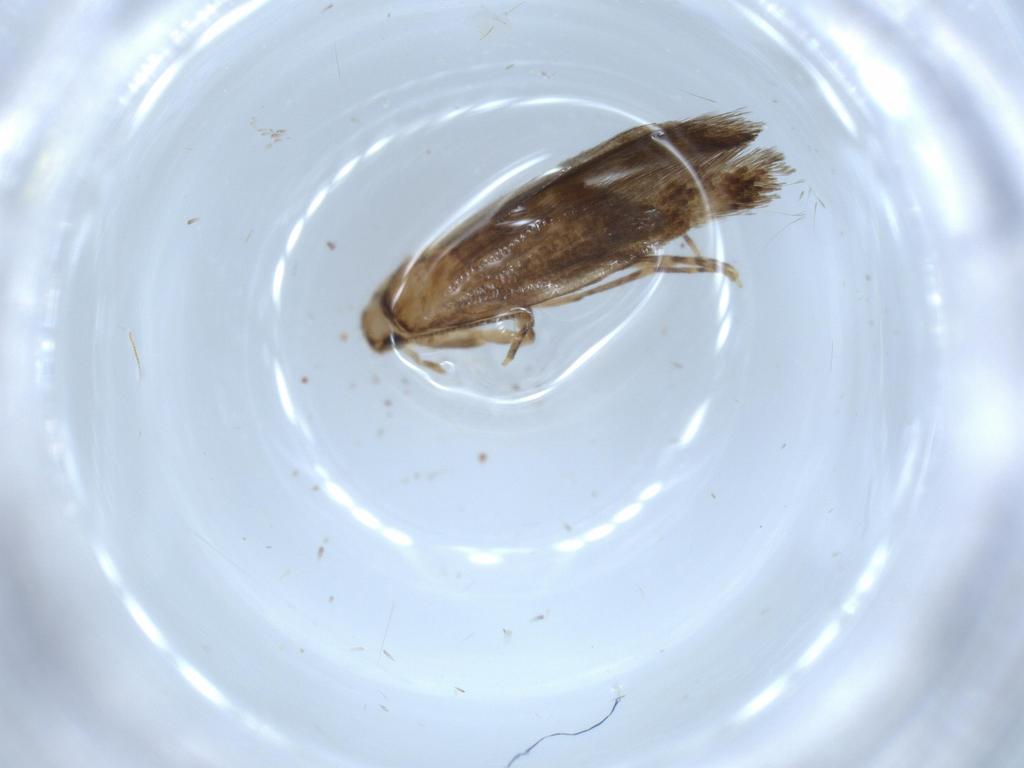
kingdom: Animalia
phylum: Arthropoda
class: Insecta
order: Lepidoptera
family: Tineidae
